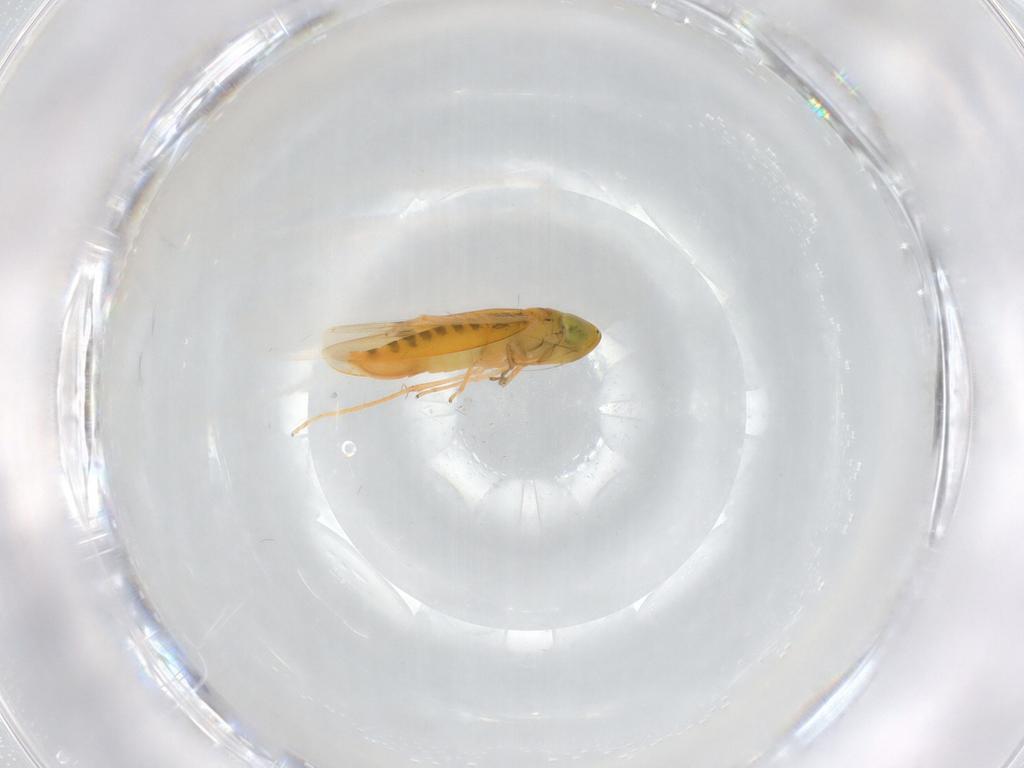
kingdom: Animalia
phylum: Arthropoda
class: Insecta
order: Hemiptera
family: Cicadellidae
